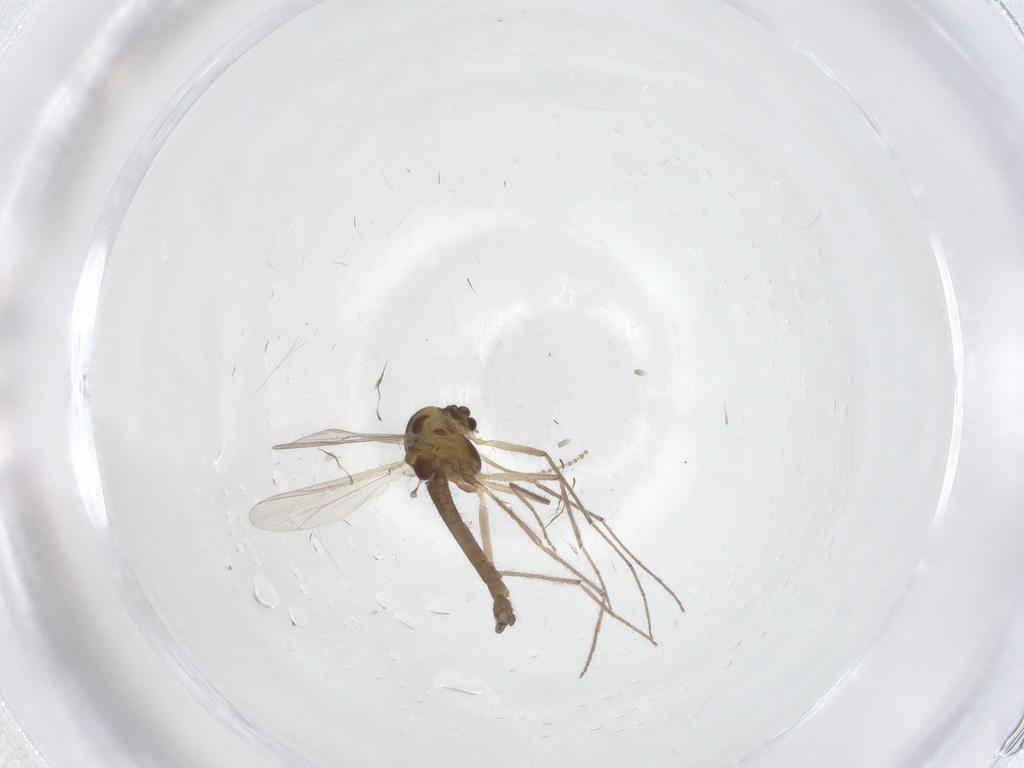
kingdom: Animalia
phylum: Arthropoda
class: Insecta
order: Diptera
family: Chironomidae
